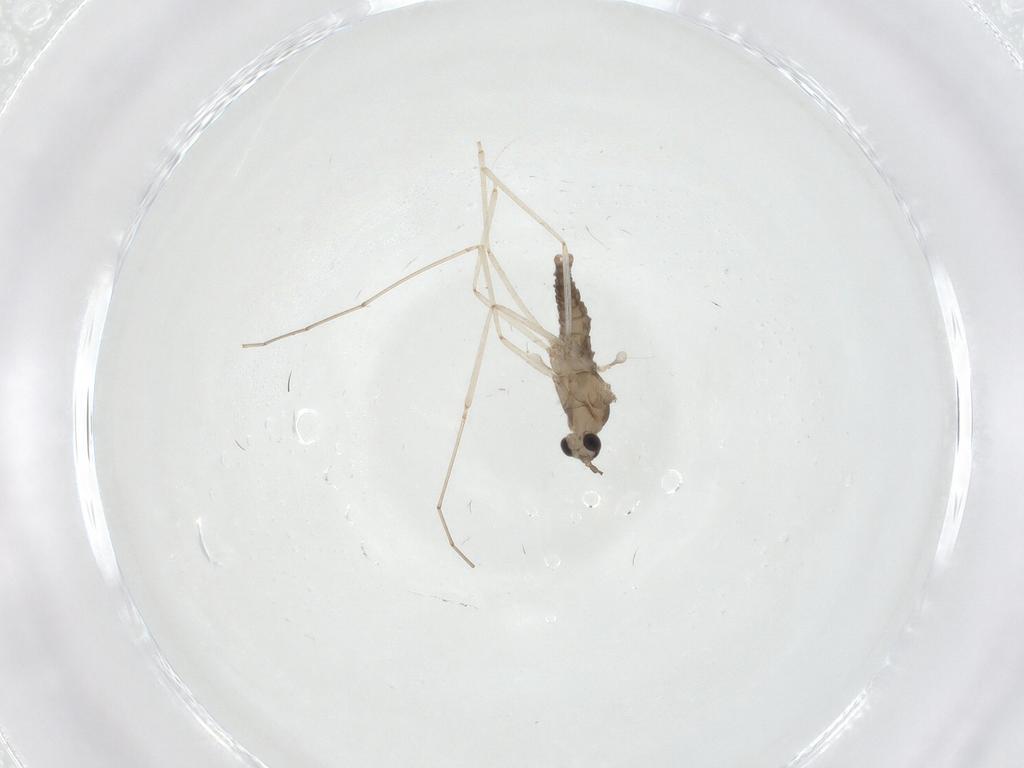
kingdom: Animalia
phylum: Arthropoda
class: Insecta
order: Diptera
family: Cecidomyiidae
